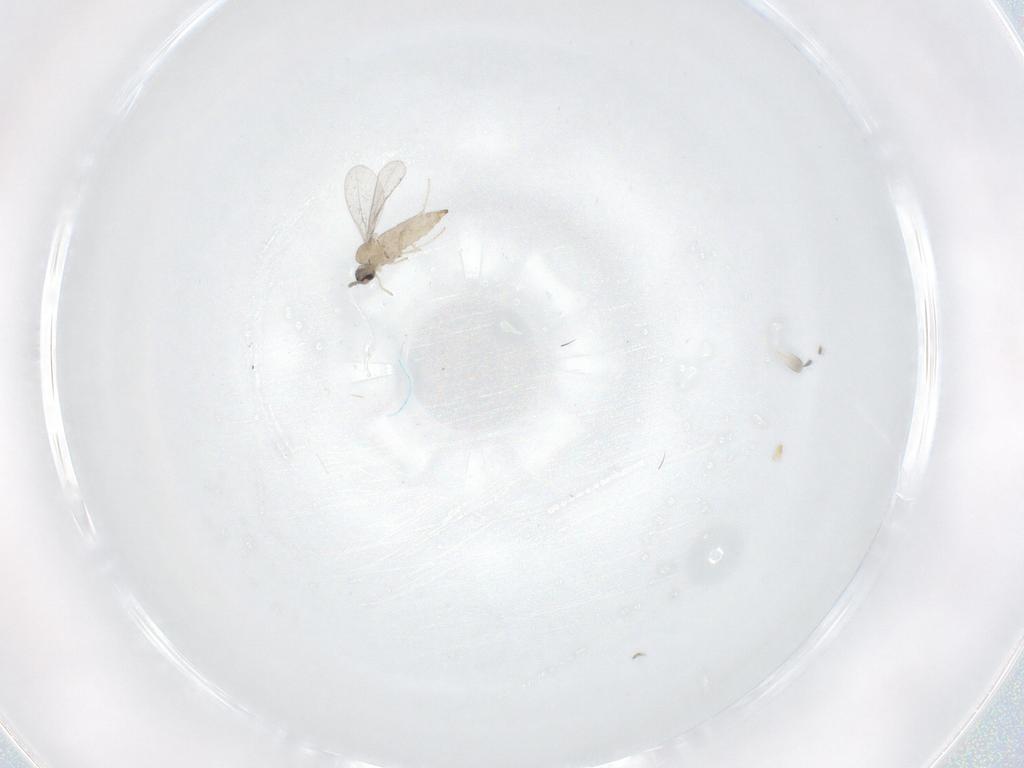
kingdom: Animalia
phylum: Arthropoda
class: Insecta
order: Diptera
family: Cecidomyiidae
